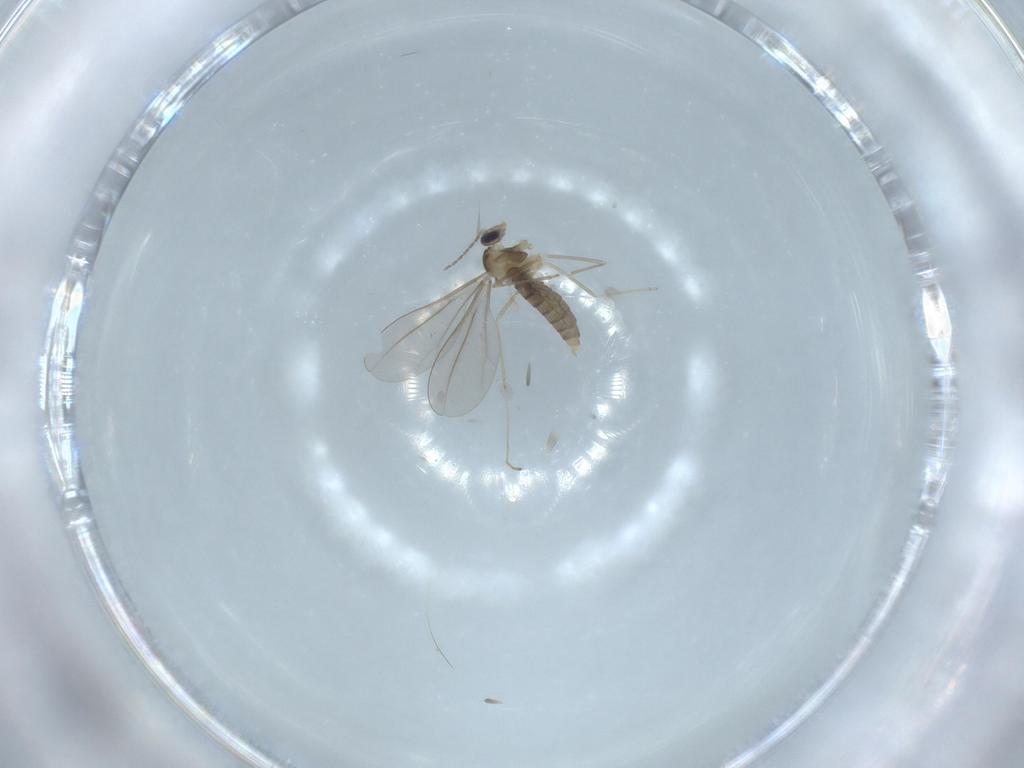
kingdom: Animalia
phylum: Arthropoda
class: Insecta
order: Diptera
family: Cecidomyiidae
